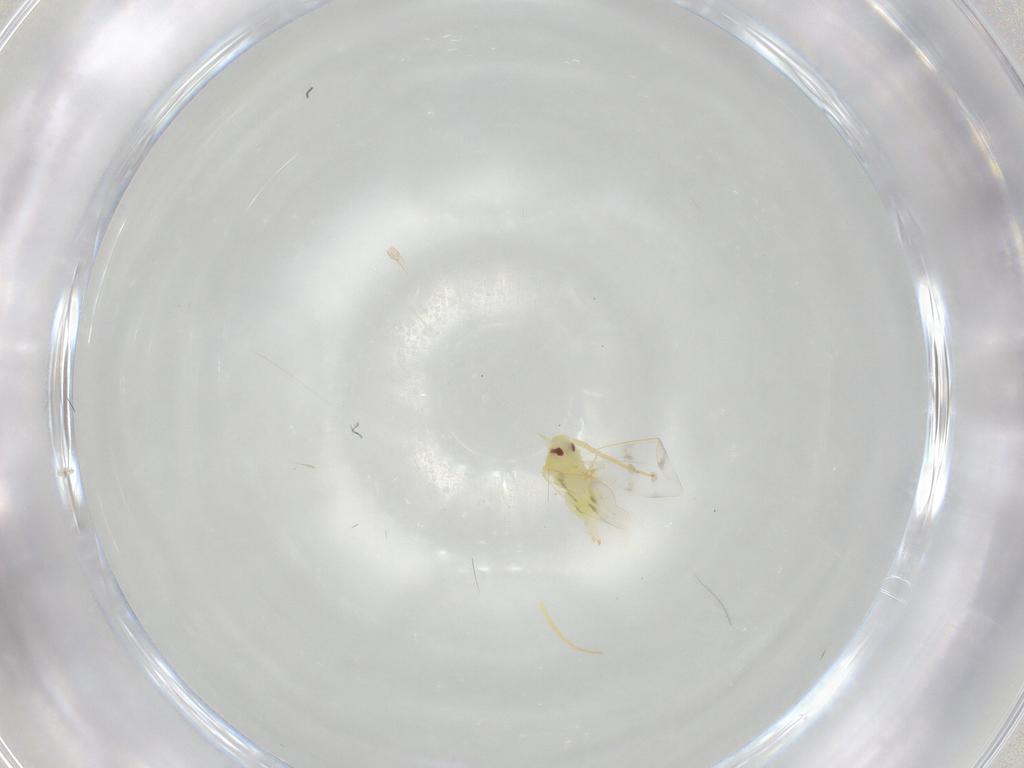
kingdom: Animalia
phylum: Arthropoda
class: Insecta
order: Hemiptera
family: Aleyrodidae
